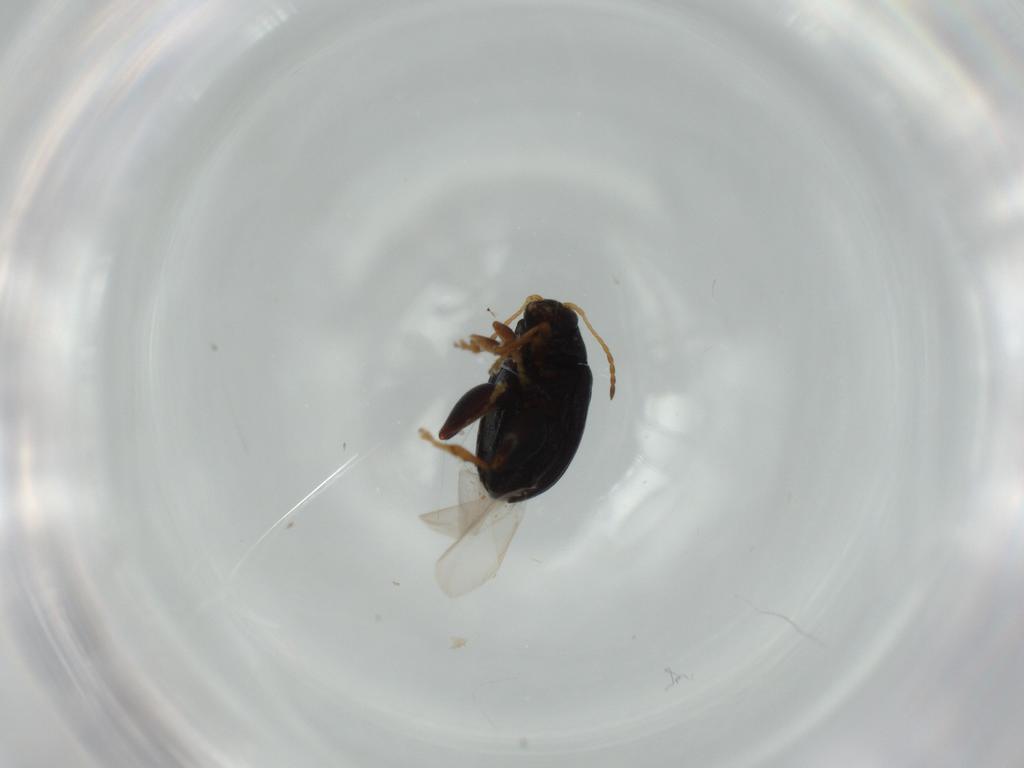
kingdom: Animalia
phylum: Arthropoda
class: Insecta
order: Coleoptera
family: Chrysomelidae
